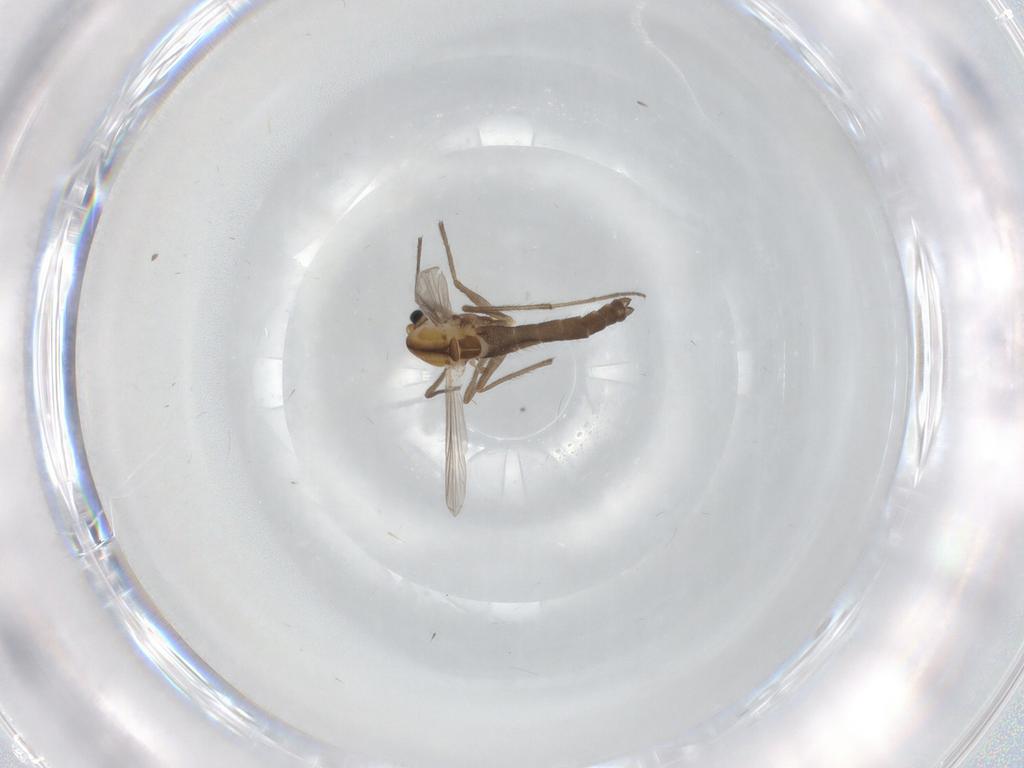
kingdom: Animalia
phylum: Arthropoda
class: Insecta
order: Diptera
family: Chironomidae
